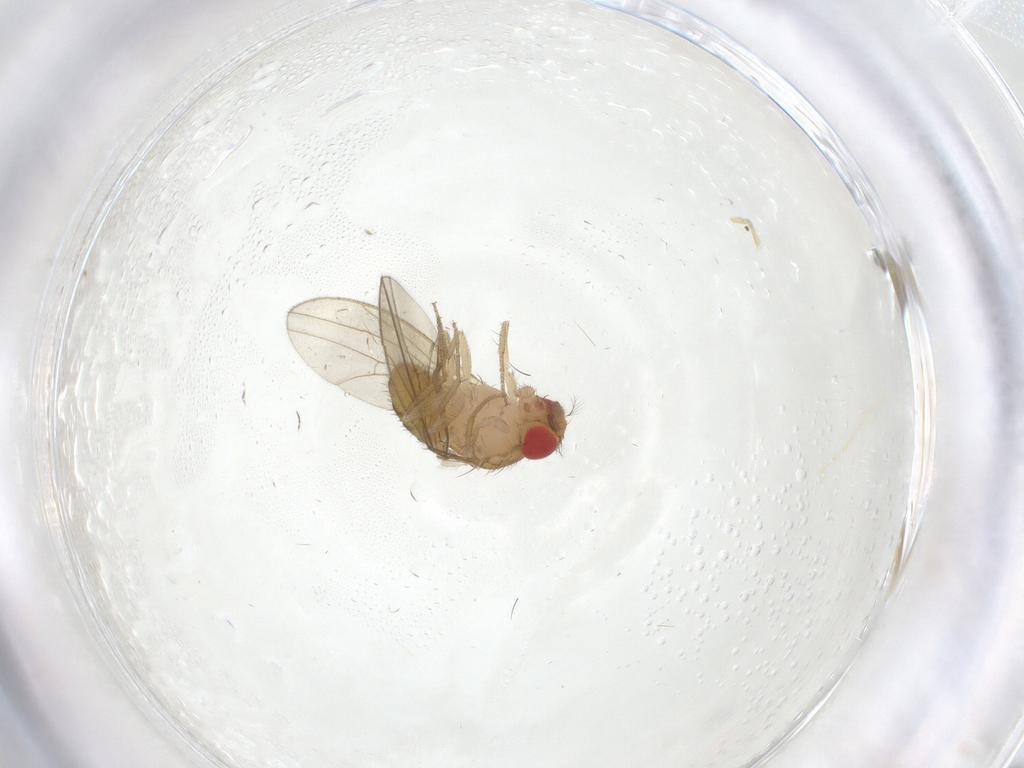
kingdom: Animalia
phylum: Arthropoda
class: Insecta
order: Diptera
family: Drosophilidae
